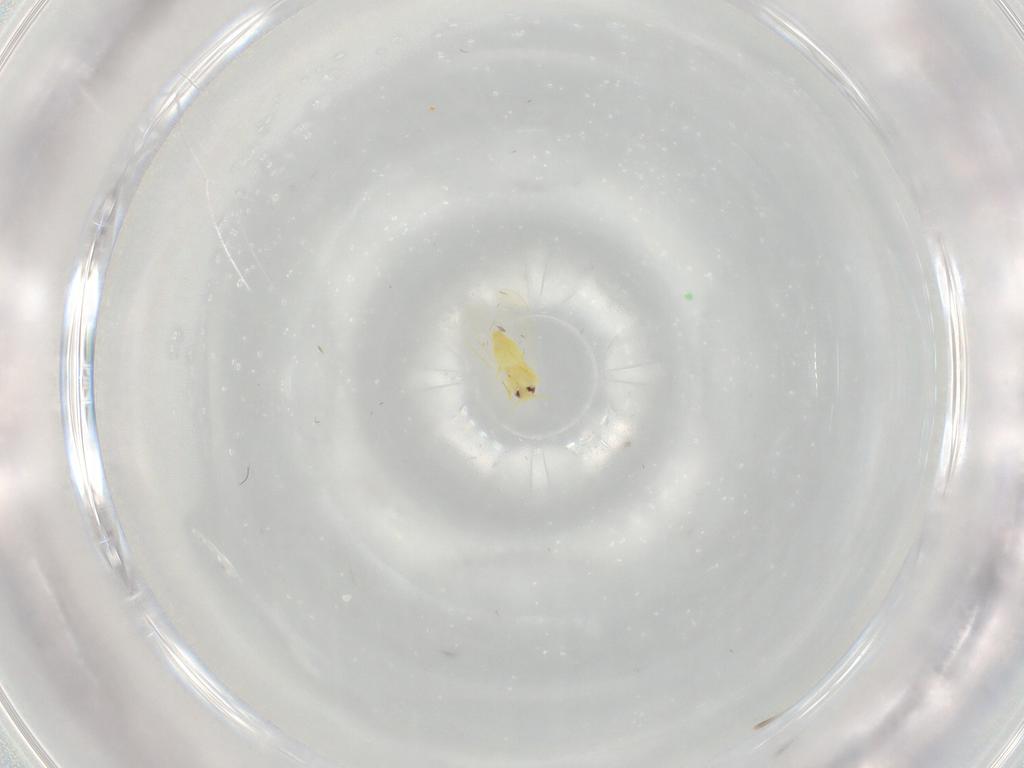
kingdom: Animalia
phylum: Arthropoda
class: Insecta
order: Hemiptera
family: Aleyrodidae
